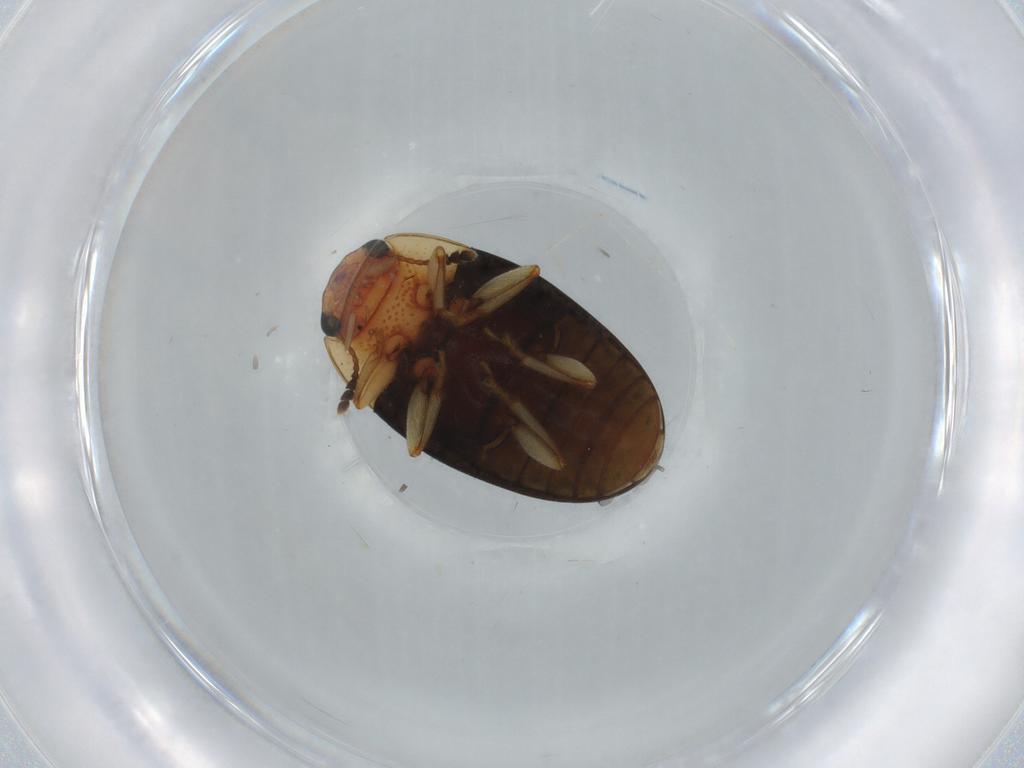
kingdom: Animalia
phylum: Arthropoda
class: Insecta
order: Coleoptera
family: Erotylidae
